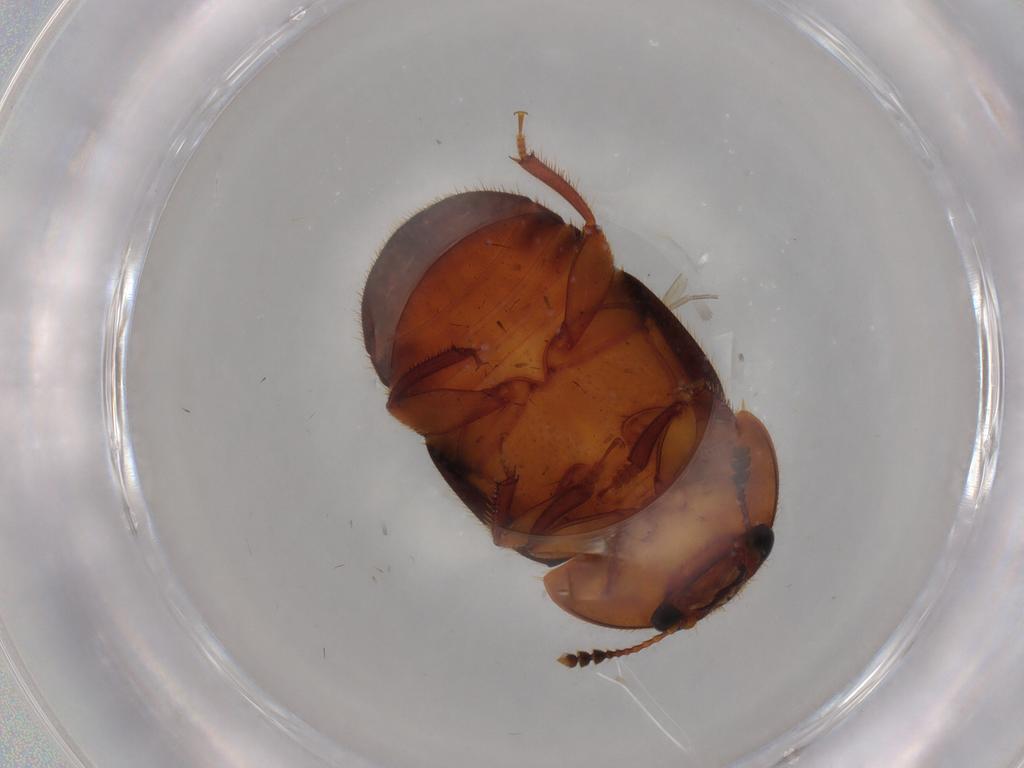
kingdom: Animalia
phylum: Arthropoda
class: Insecta
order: Coleoptera
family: Nitidulidae
